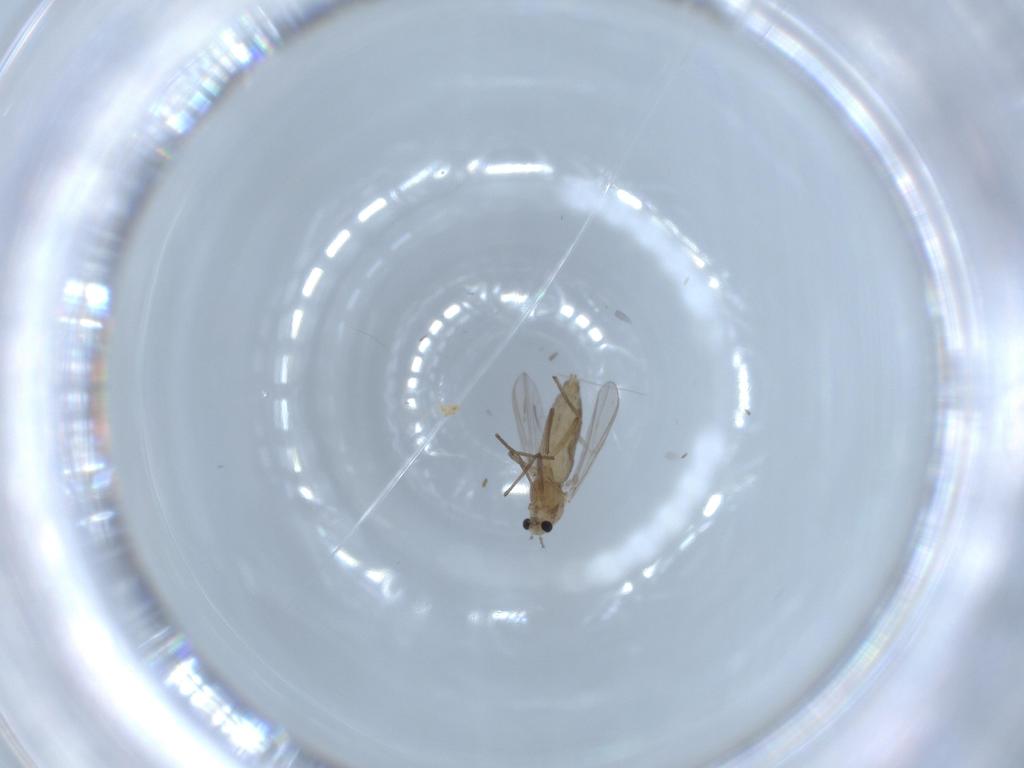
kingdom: Animalia
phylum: Arthropoda
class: Insecta
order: Diptera
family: Chironomidae
